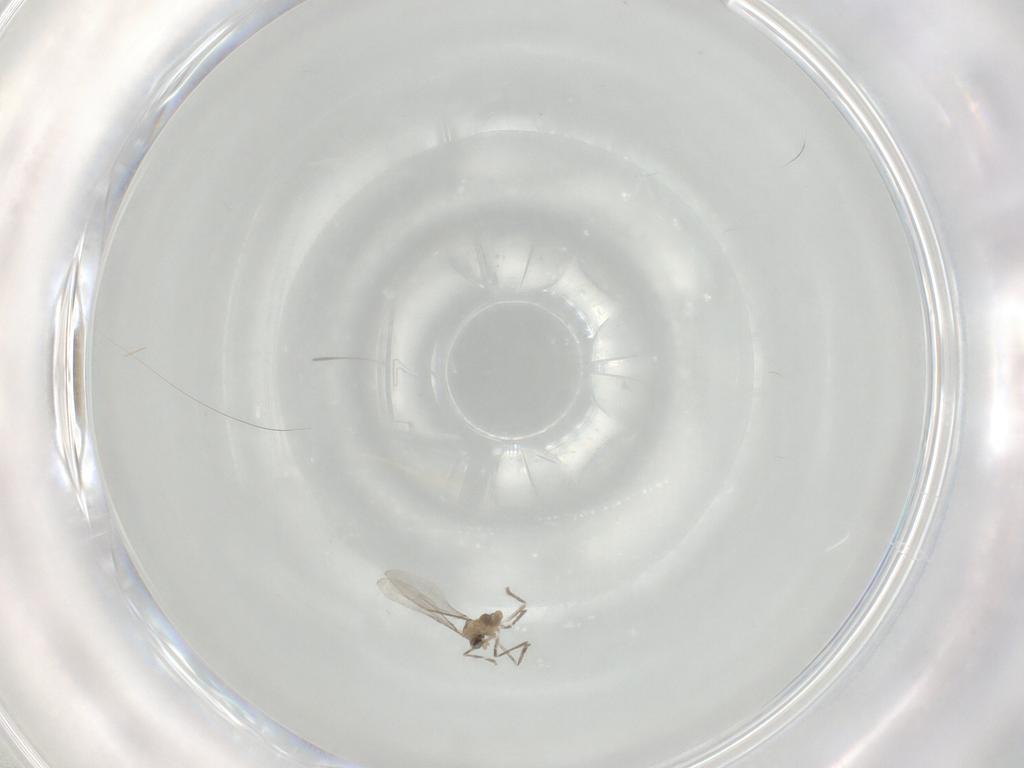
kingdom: Animalia
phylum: Arthropoda
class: Insecta
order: Diptera
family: Cecidomyiidae
